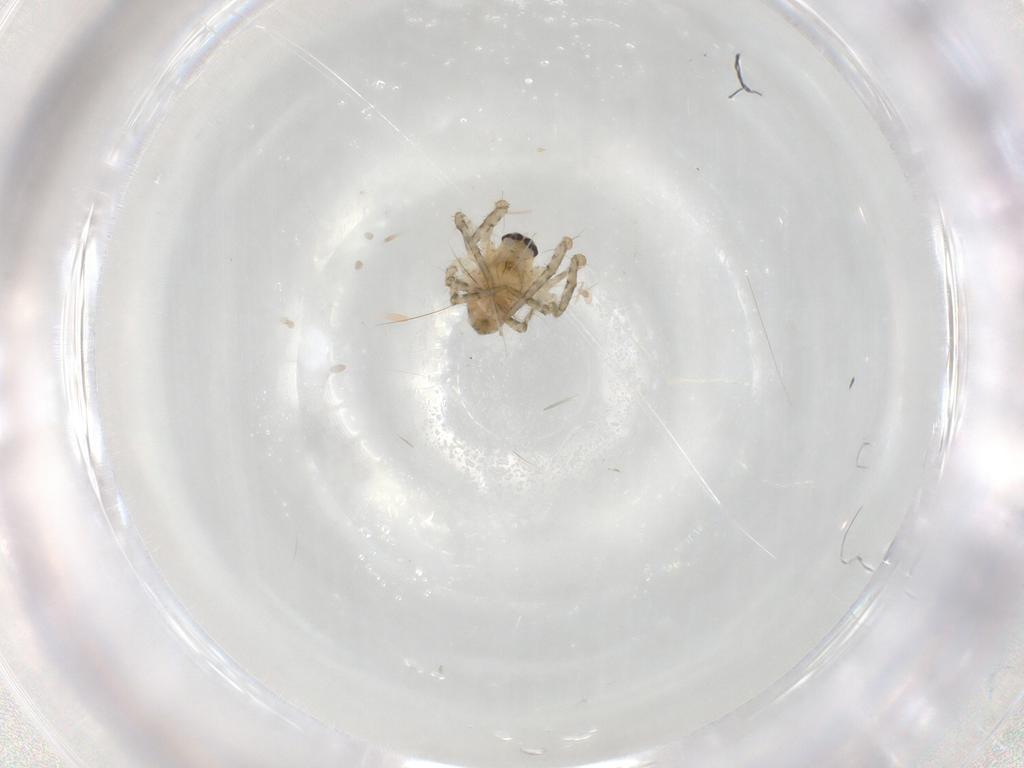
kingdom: Animalia
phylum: Arthropoda
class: Arachnida
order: Araneae
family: Araneidae
